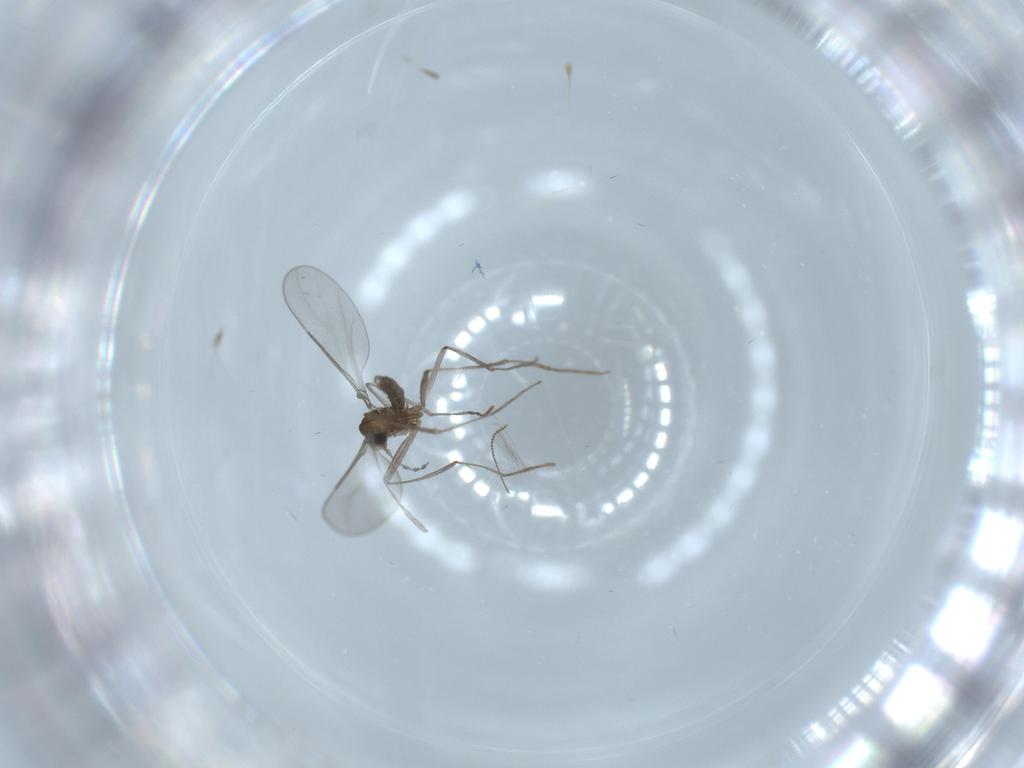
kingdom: Animalia
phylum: Arthropoda
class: Insecta
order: Diptera
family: Cecidomyiidae
